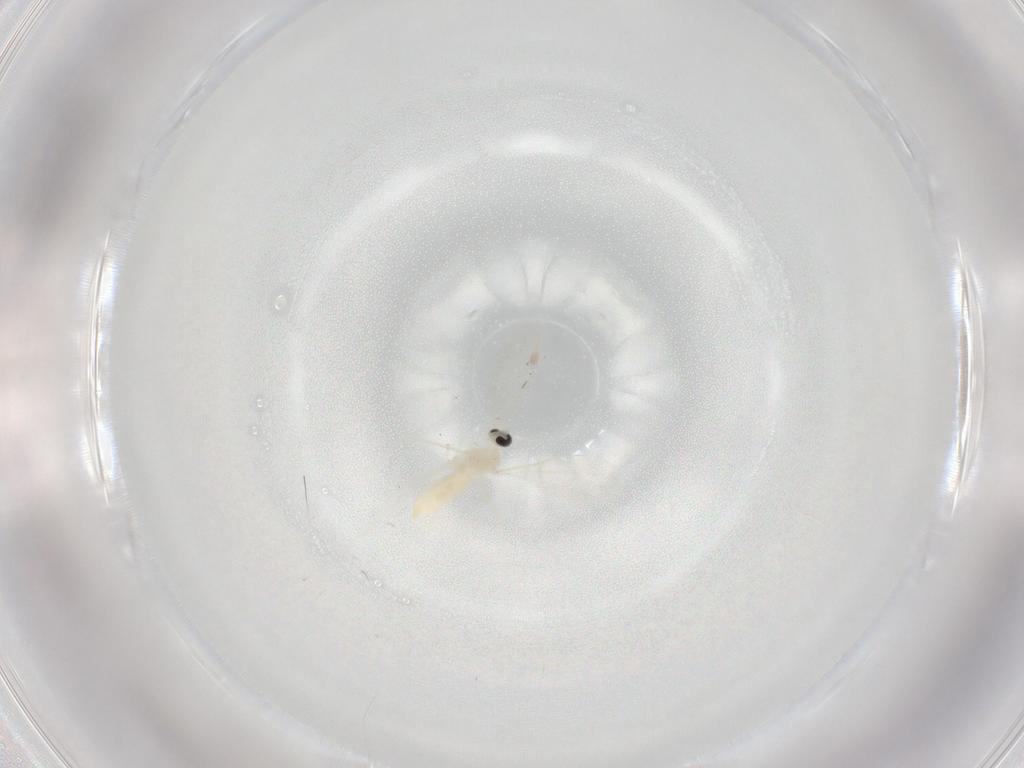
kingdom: Animalia
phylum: Arthropoda
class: Insecta
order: Diptera
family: Cecidomyiidae
